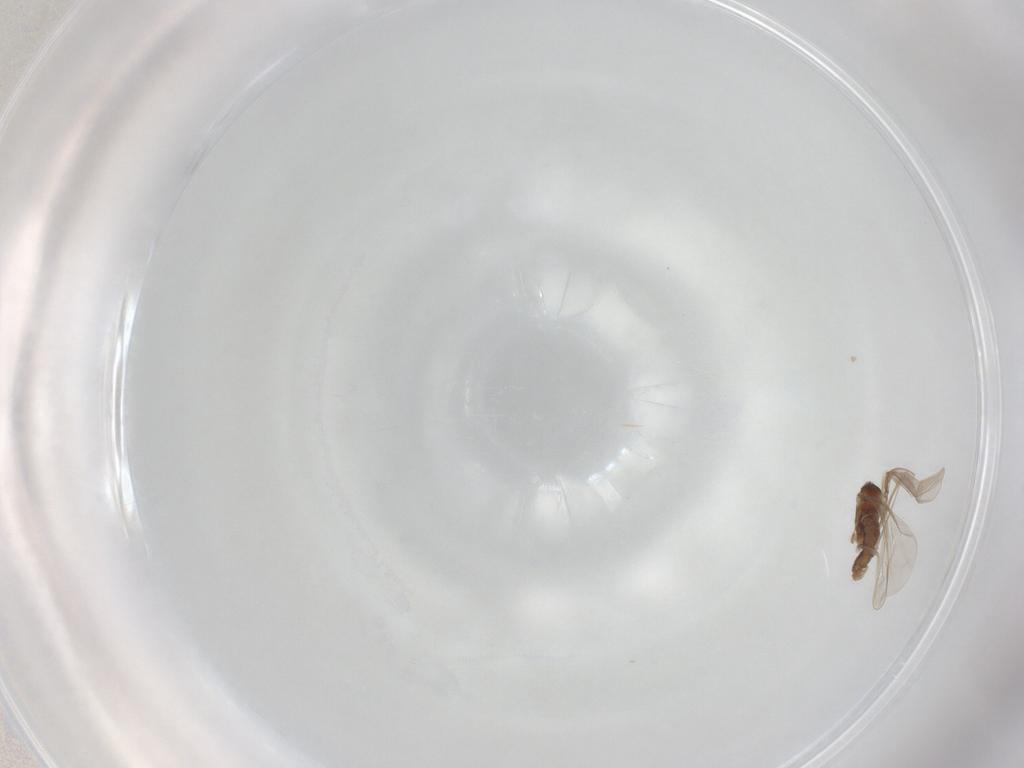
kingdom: Animalia
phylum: Arthropoda
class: Insecta
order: Diptera
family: Cecidomyiidae
